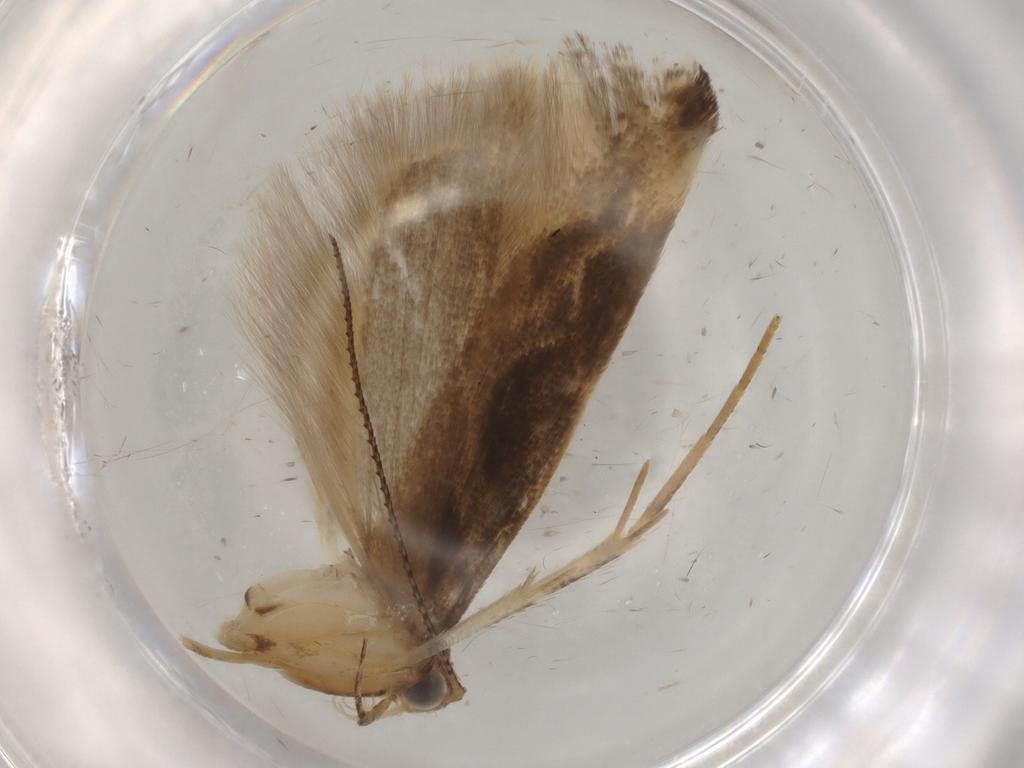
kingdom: Animalia
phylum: Arthropoda
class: Insecta
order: Lepidoptera
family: Gelechiidae
